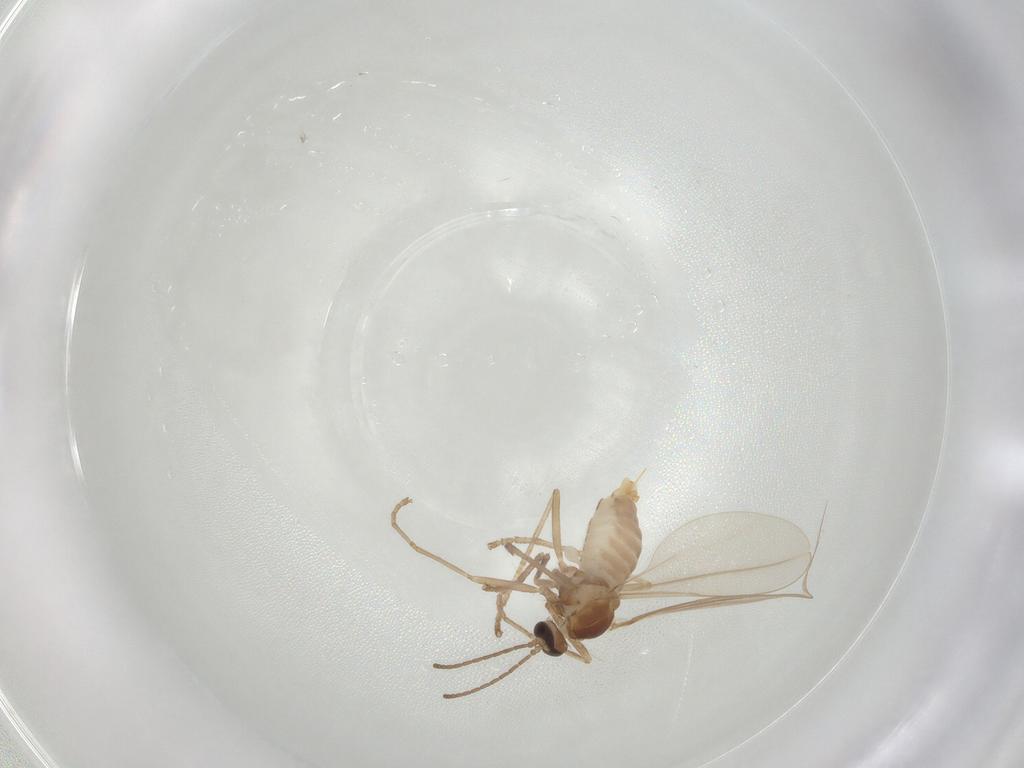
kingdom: Animalia
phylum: Arthropoda
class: Insecta
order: Diptera
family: Cecidomyiidae
